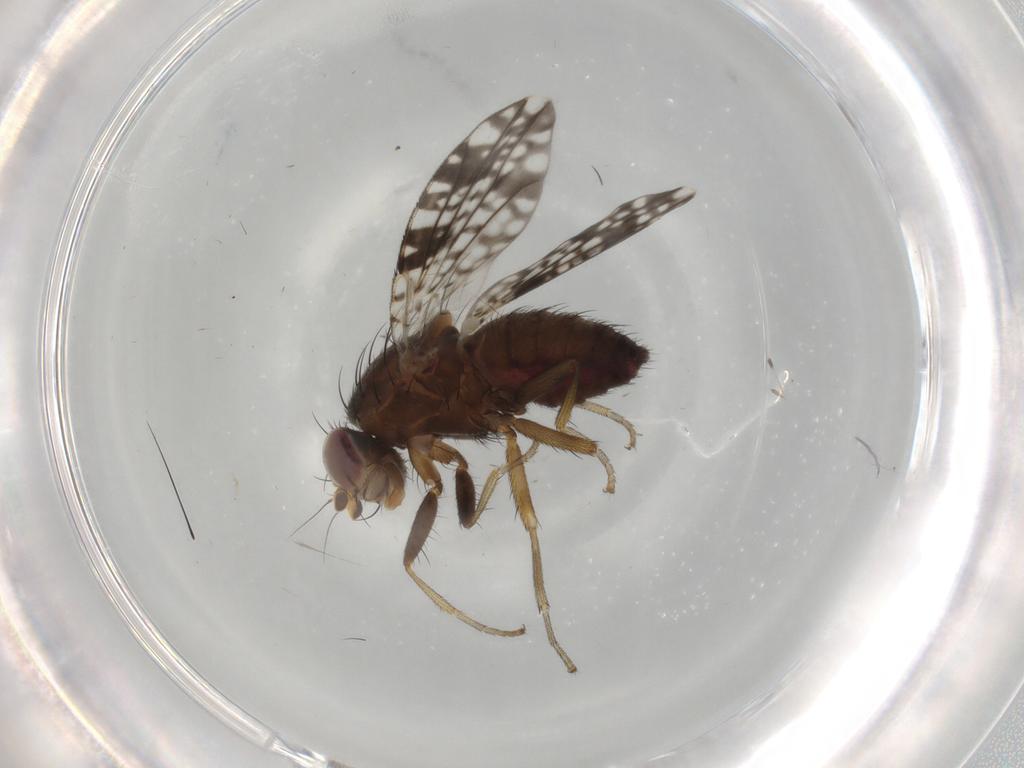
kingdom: Animalia
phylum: Arthropoda
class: Insecta
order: Diptera
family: Tephritidae
